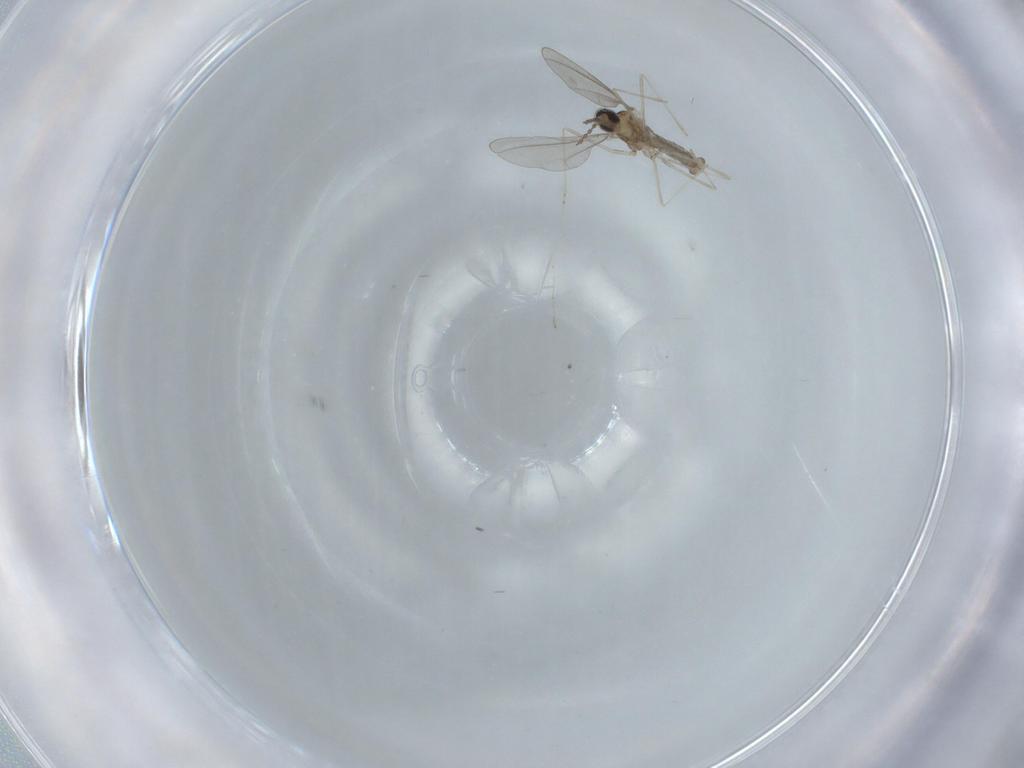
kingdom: Animalia
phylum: Arthropoda
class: Insecta
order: Diptera
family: Cecidomyiidae
